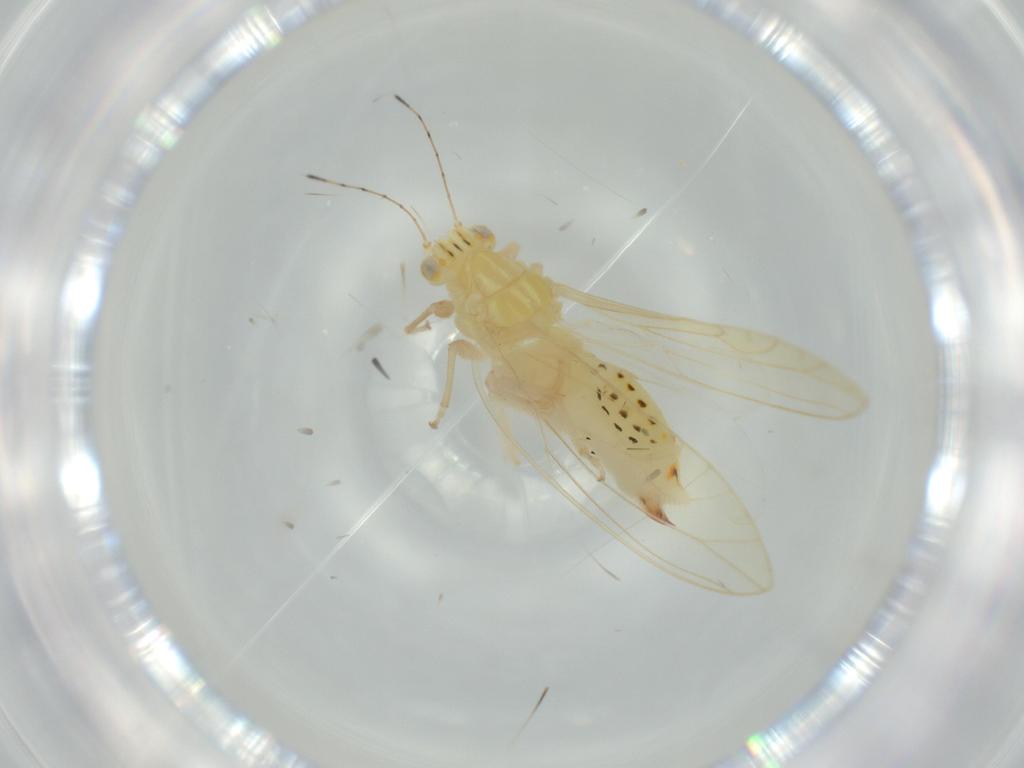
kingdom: Animalia
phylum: Arthropoda
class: Insecta
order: Hemiptera
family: Triozidae
